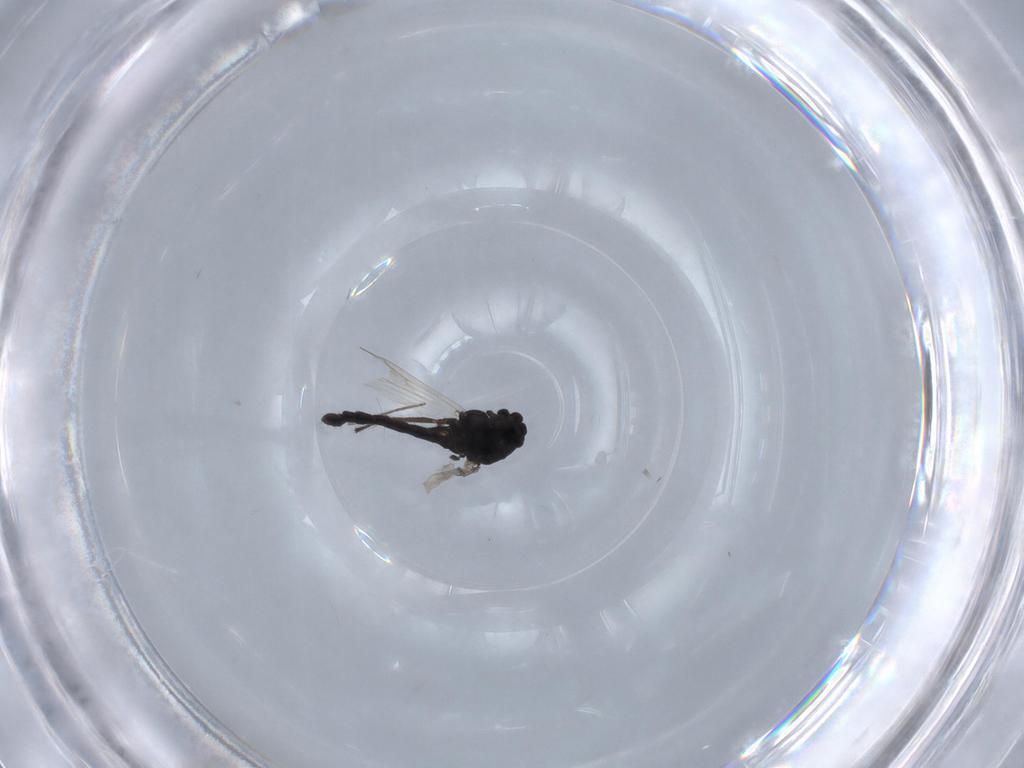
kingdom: Animalia
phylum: Arthropoda
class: Insecta
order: Diptera
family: Chironomidae
